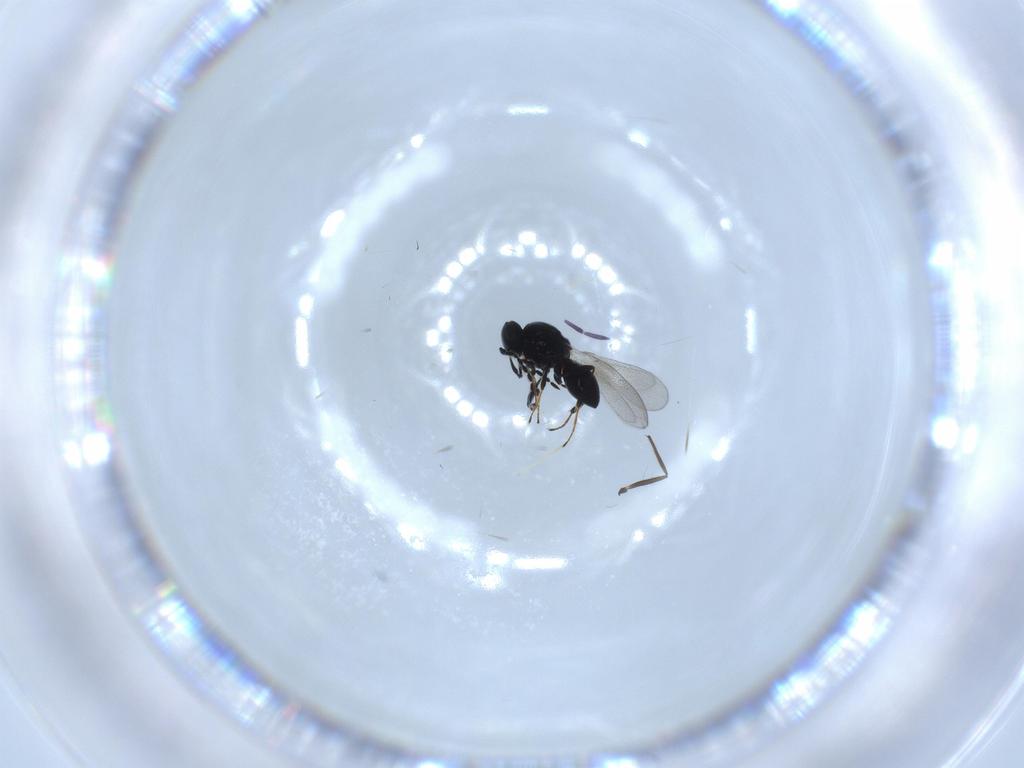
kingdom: Animalia
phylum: Arthropoda
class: Insecta
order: Hymenoptera
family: Platygastridae
